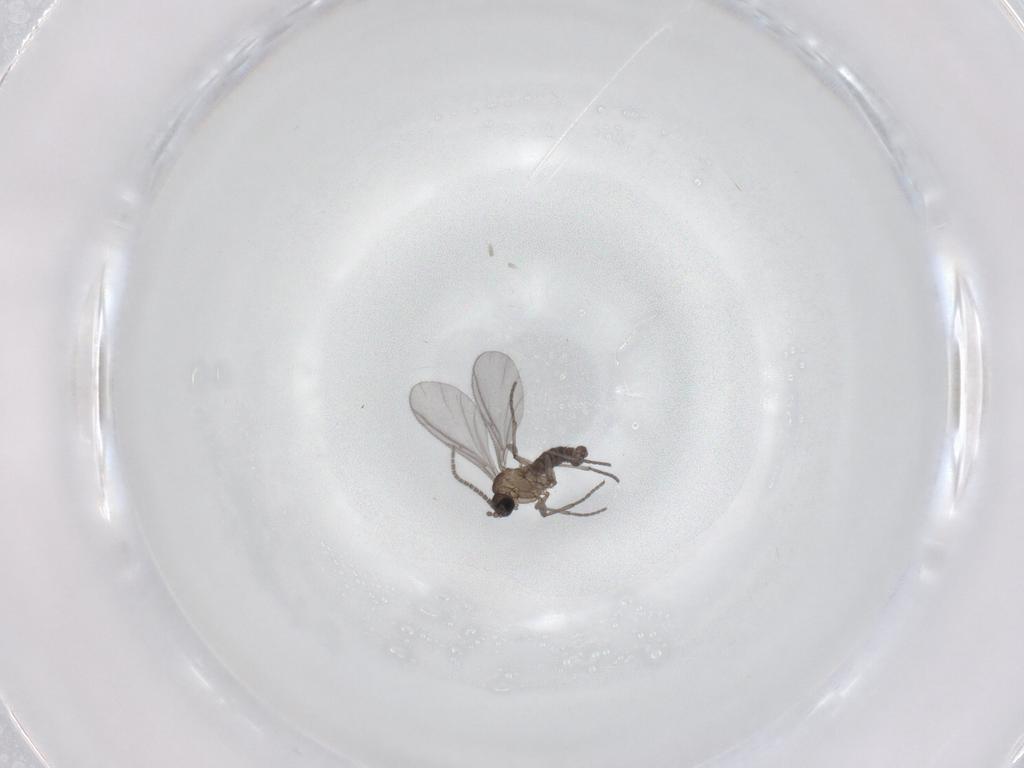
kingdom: Animalia
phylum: Arthropoda
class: Insecta
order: Diptera
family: Sciaridae
